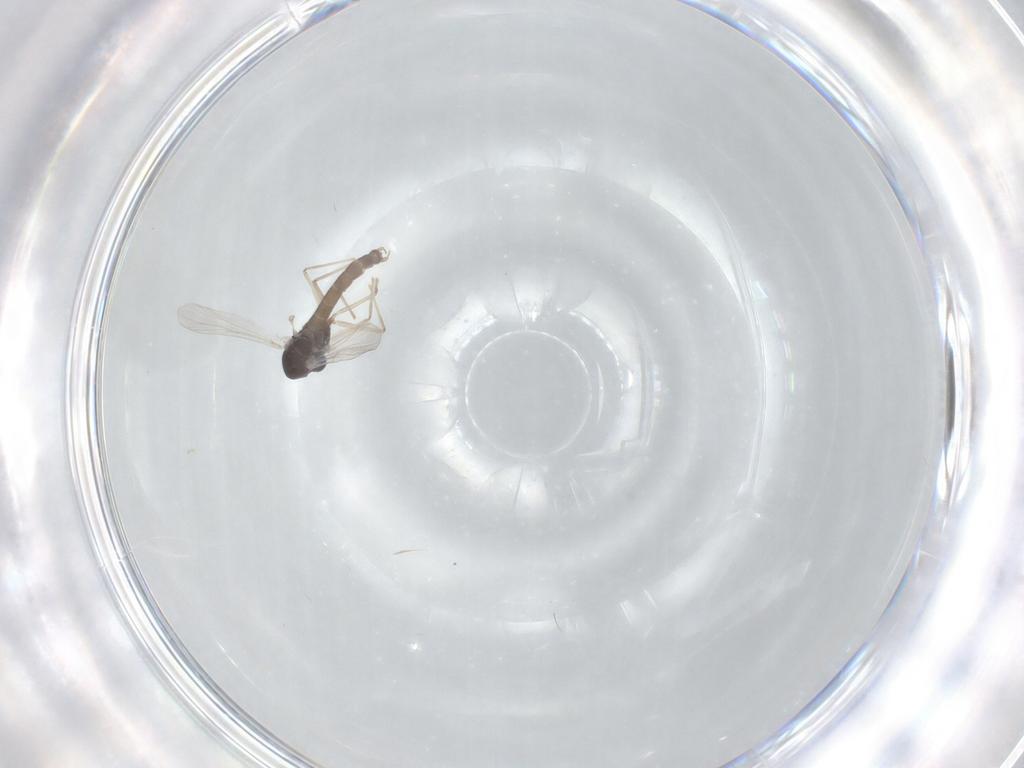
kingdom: Animalia
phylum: Arthropoda
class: Insecta
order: Diptera
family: Chironomidae
